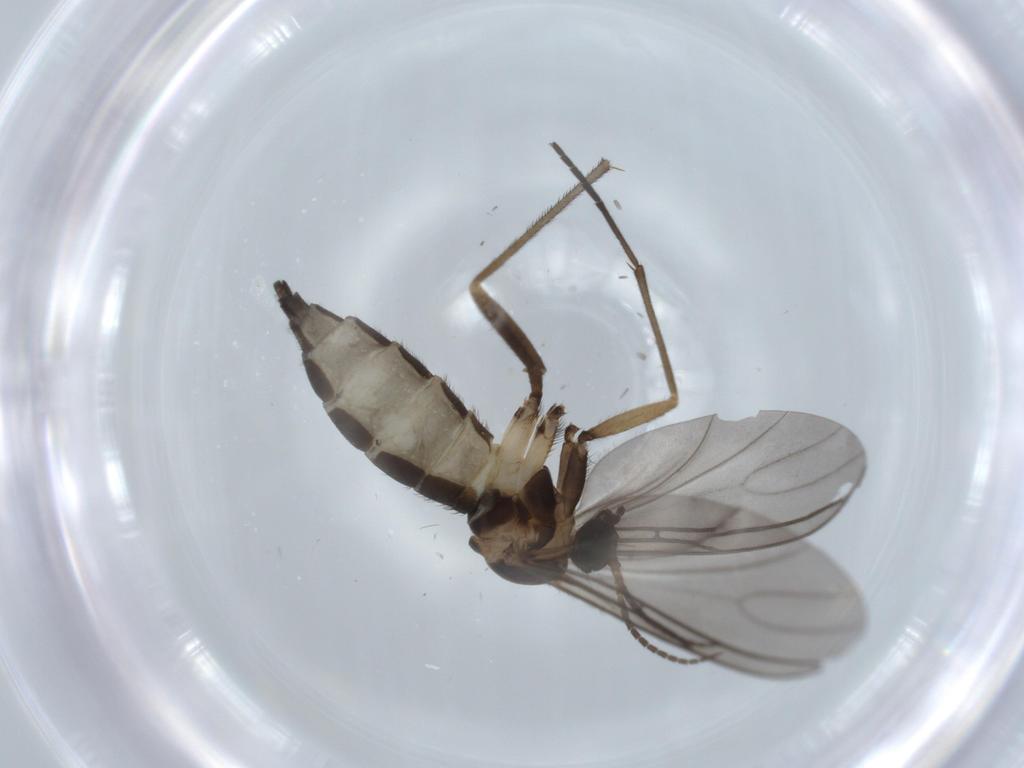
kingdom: Animalia
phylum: Arthropoda
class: Insecta
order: Diptera
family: Sciaridae
